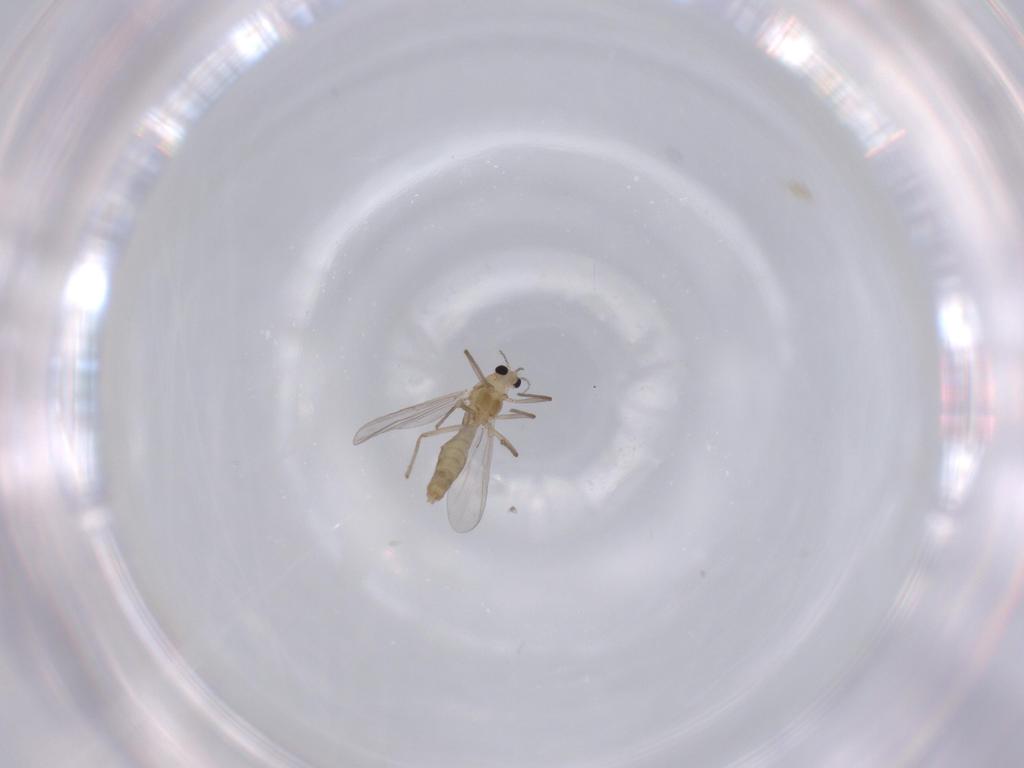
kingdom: Animalia
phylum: Arthropoda
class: Insecta
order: Diptera
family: Chironomidae
